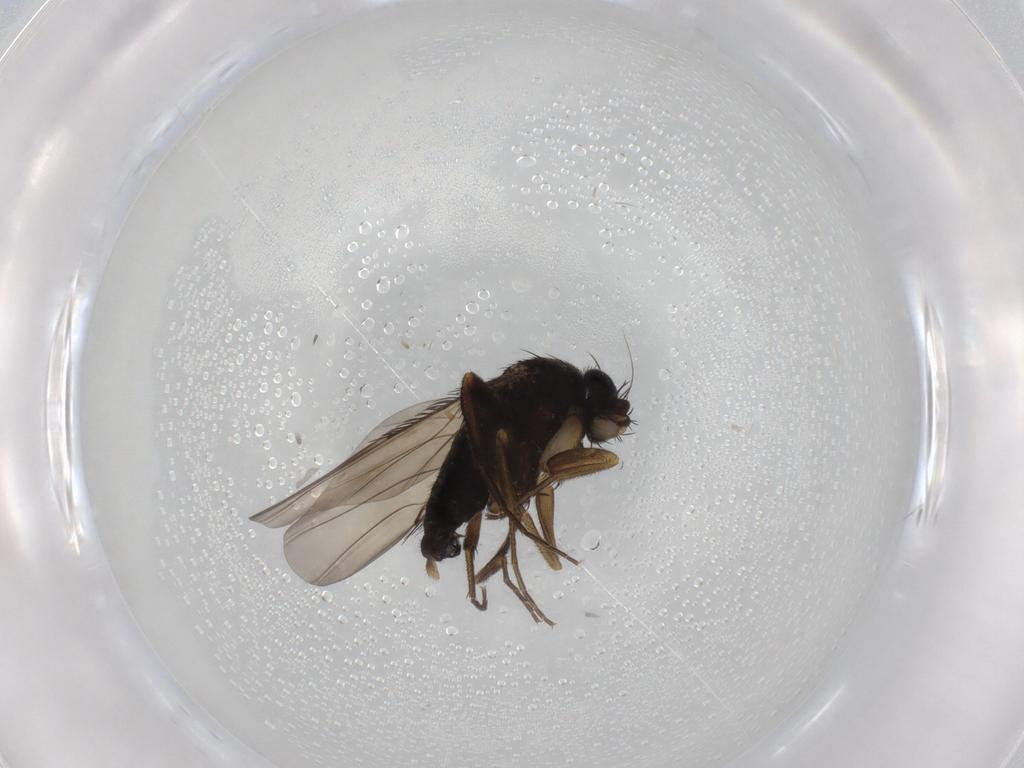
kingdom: Animalia
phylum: Arthropoda
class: Insecta
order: Diptera
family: Phoridae
